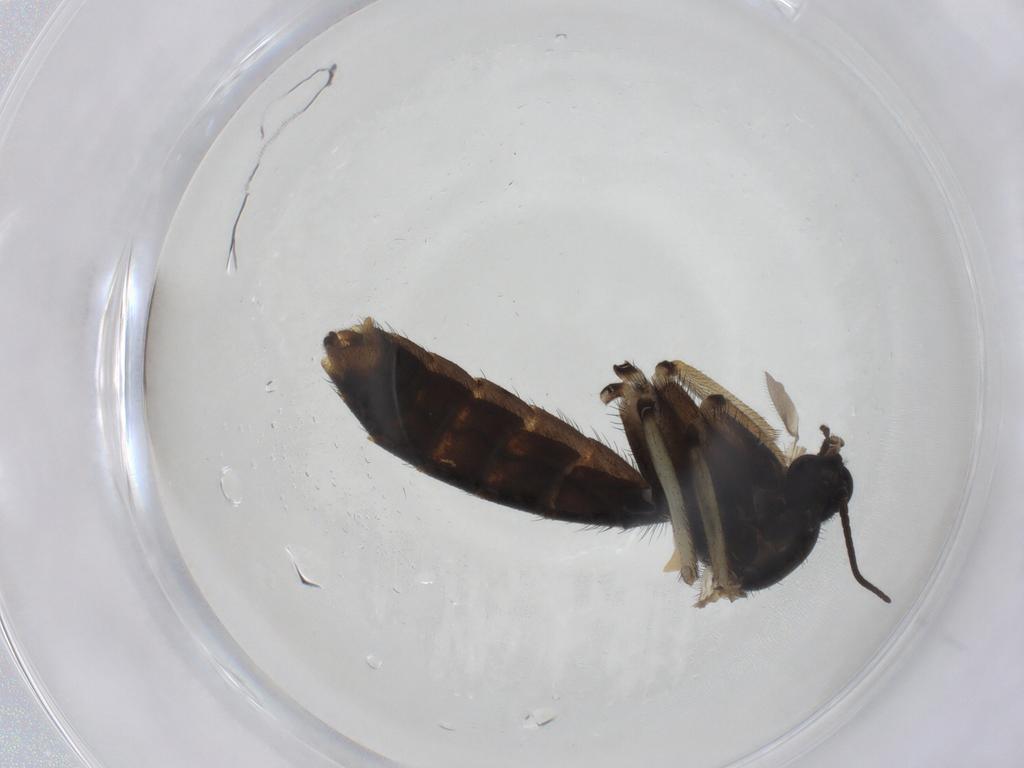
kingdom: Animalia
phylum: Arthropoda
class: Insecta
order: Diptera
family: Keroplatidae
